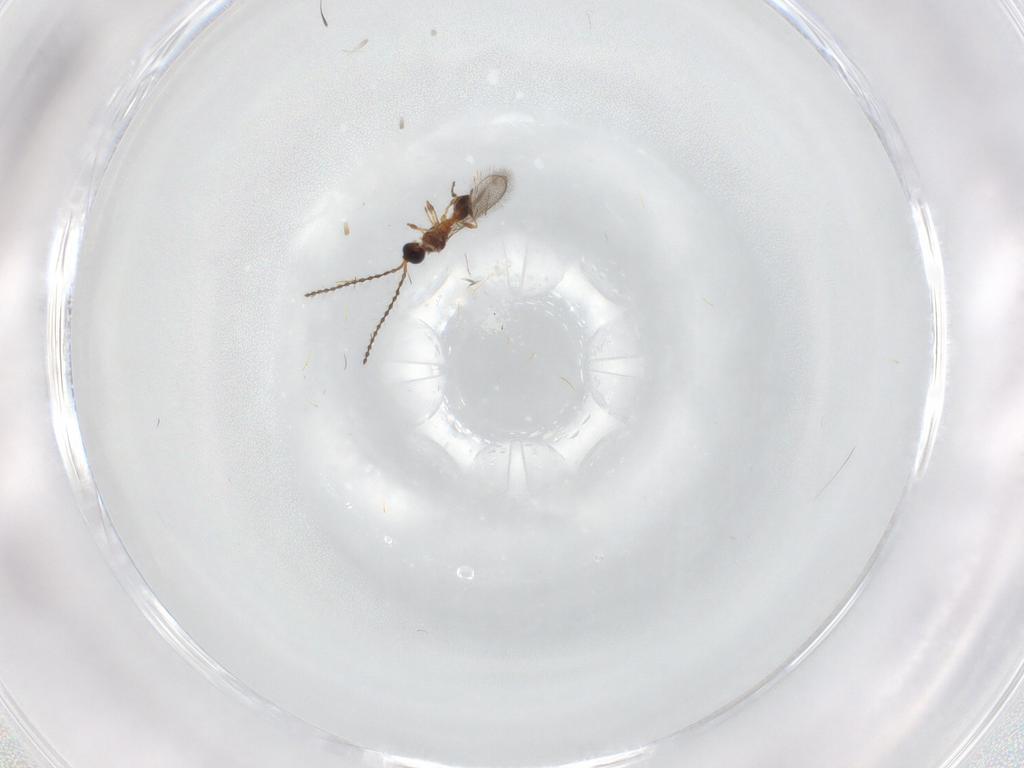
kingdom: Animalia
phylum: Arthropoda
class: Insecta
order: Hymenoptera
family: Diapriidae
